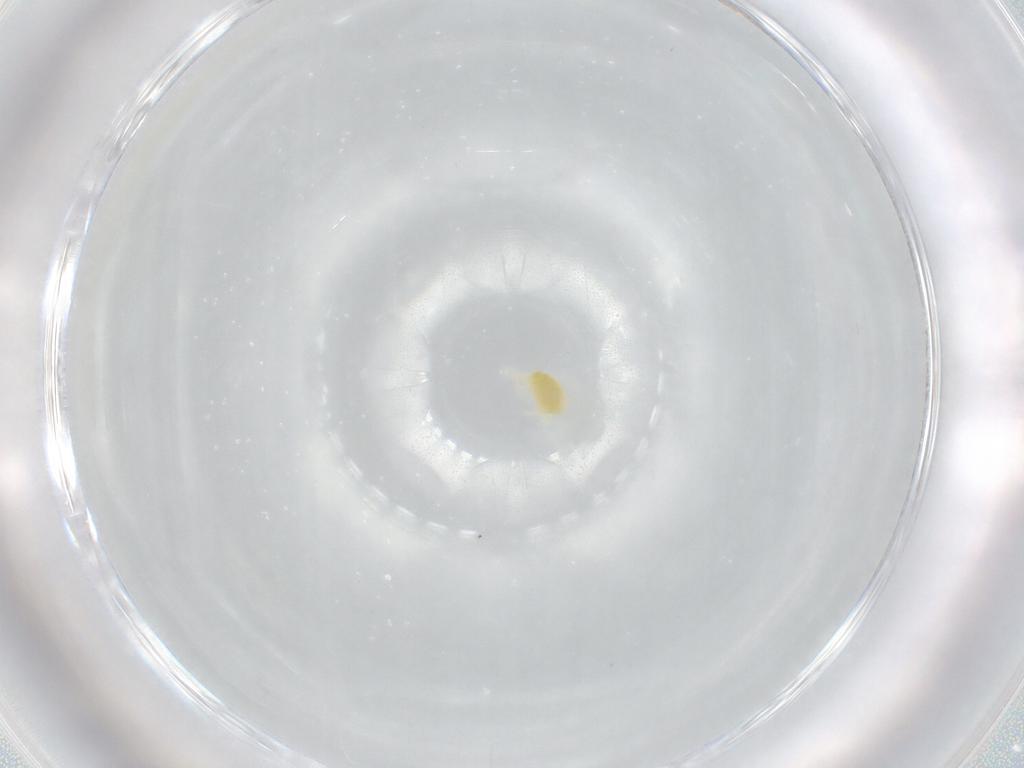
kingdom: Animalia
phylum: Arthropoda
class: Arachnida
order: Trombidiformes
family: Eupodidae
